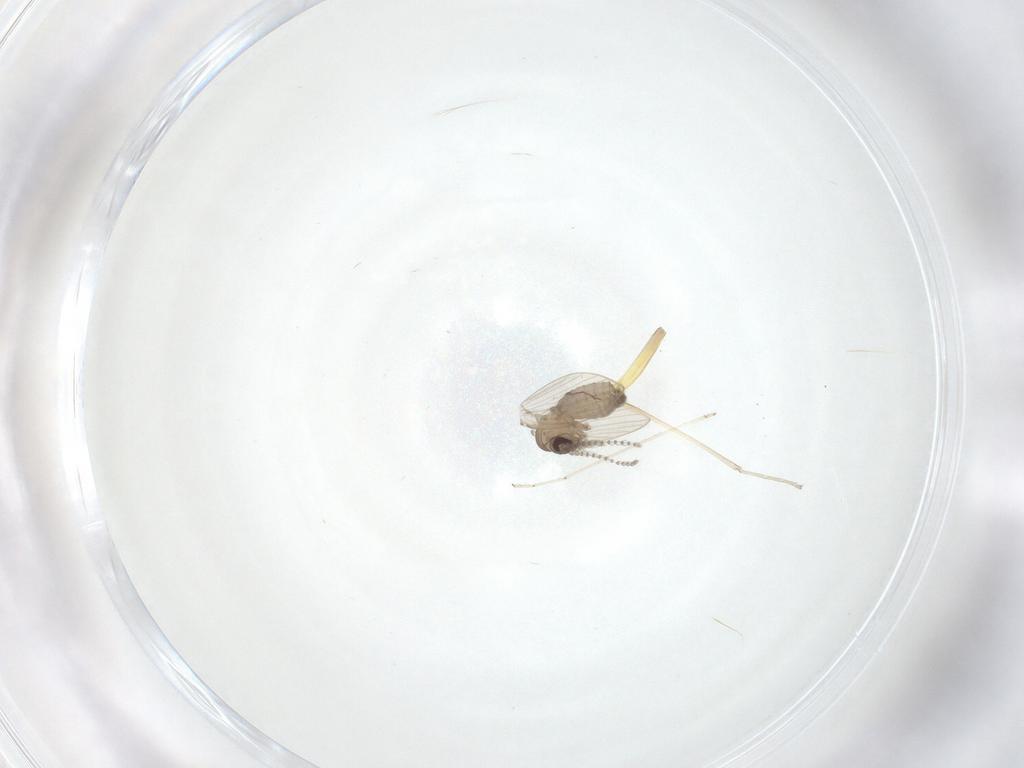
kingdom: Animalia
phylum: Arthropoda
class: Insecta
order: Diptera
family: Psychodidae
